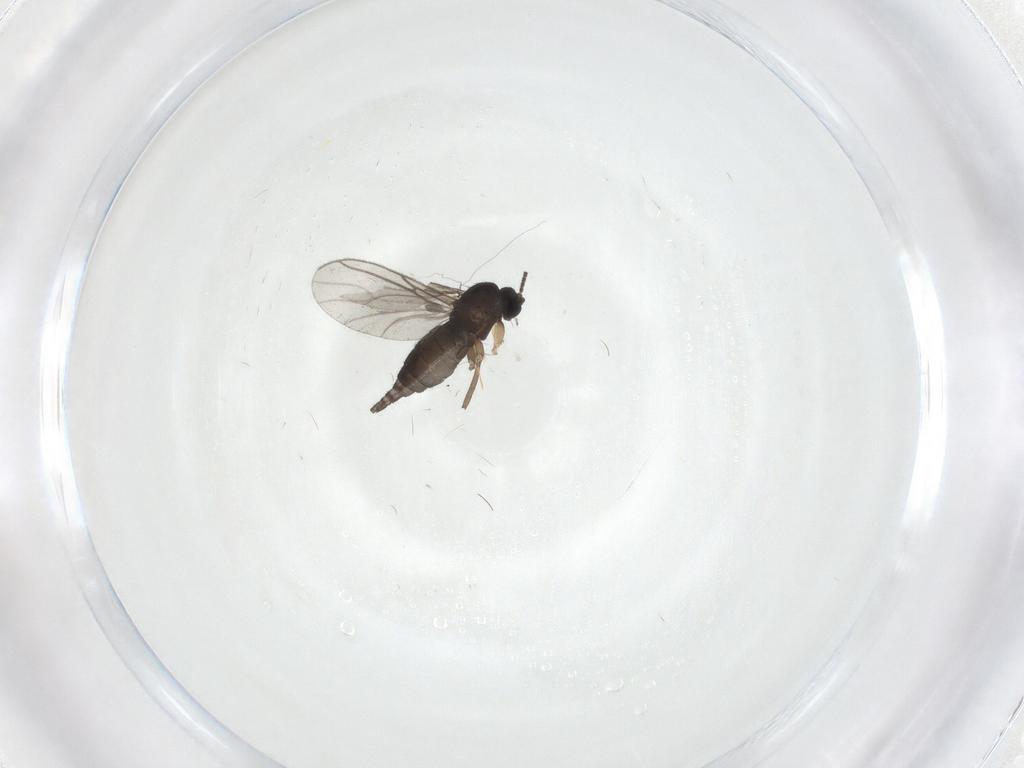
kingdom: Animalia
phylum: Arthropoda
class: Insecta
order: Diptera
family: Sciaridae
